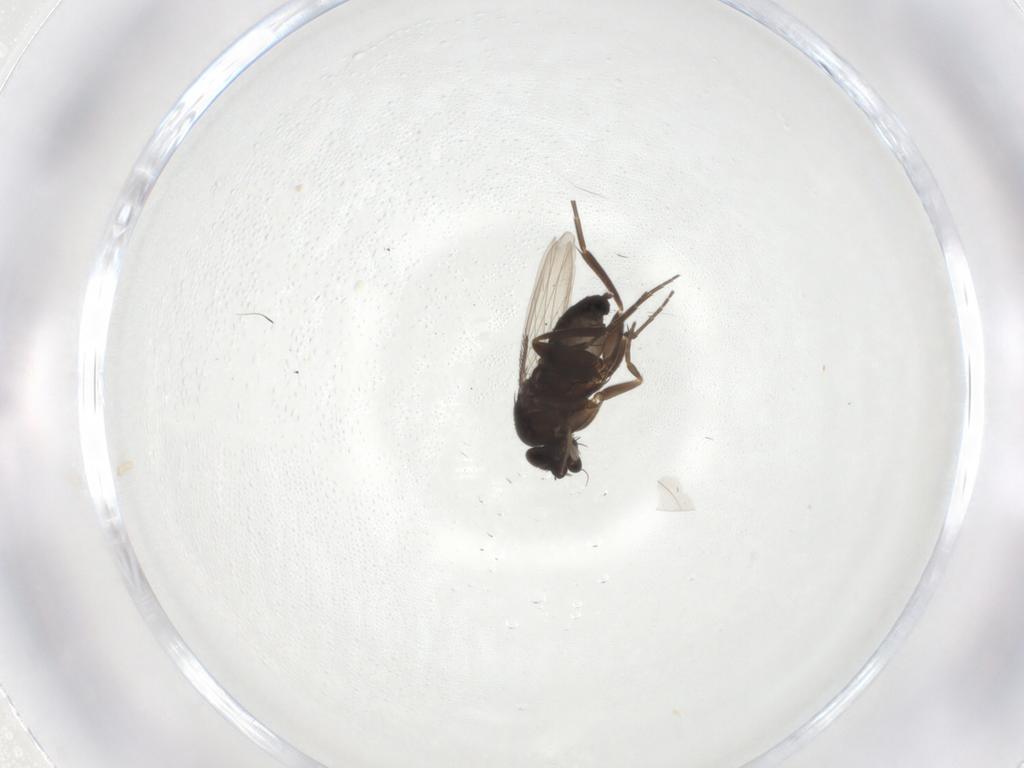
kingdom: Animalia
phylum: Arthropoda
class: Insecta
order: Diptera
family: Phoridae
